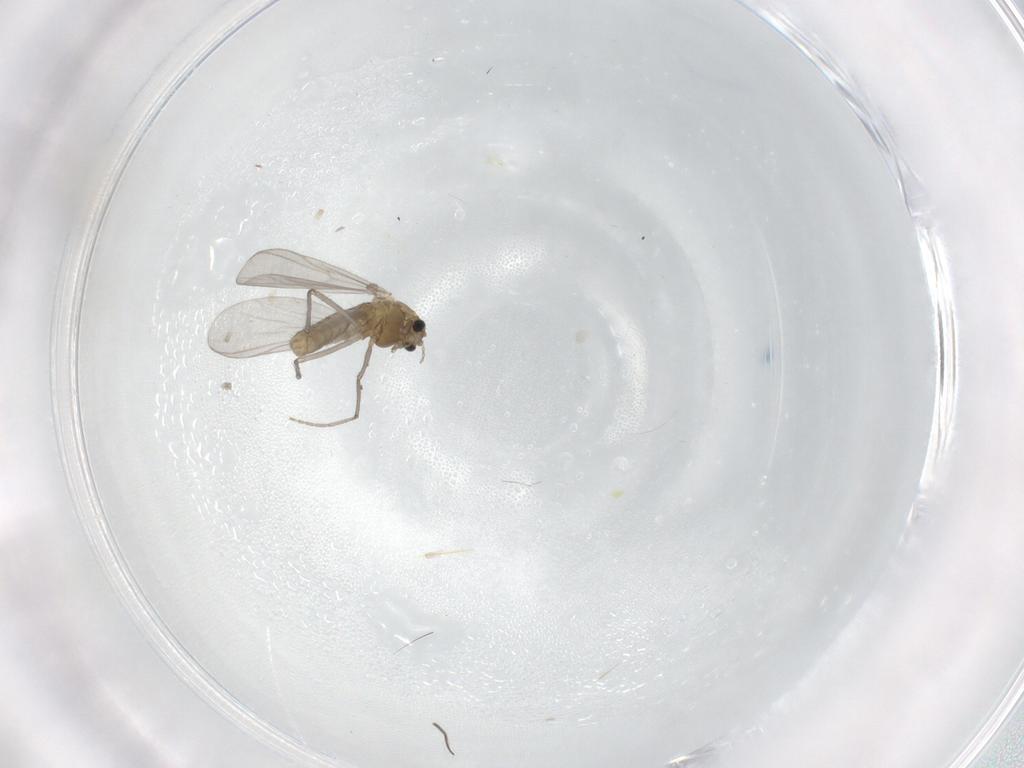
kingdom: Animalia
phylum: Arthropoda
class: Insecta
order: Diptera
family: Chironomidae
